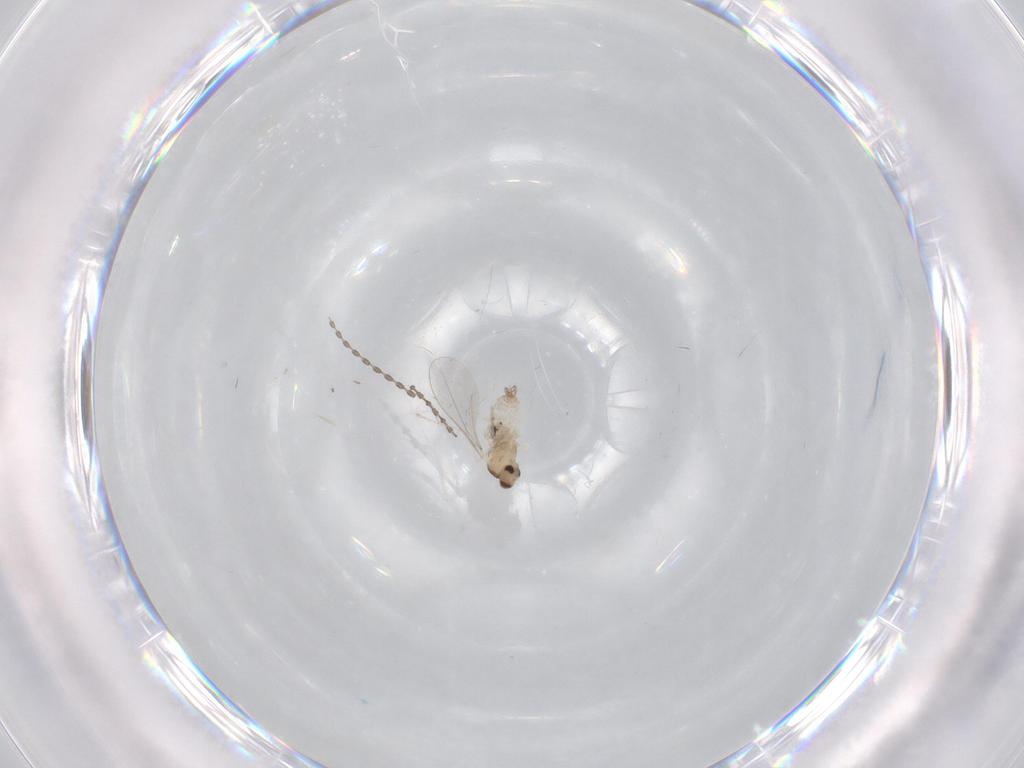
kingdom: Animalia
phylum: Arthropoda
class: Insecta
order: Diptera
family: Cecidomyiidae
